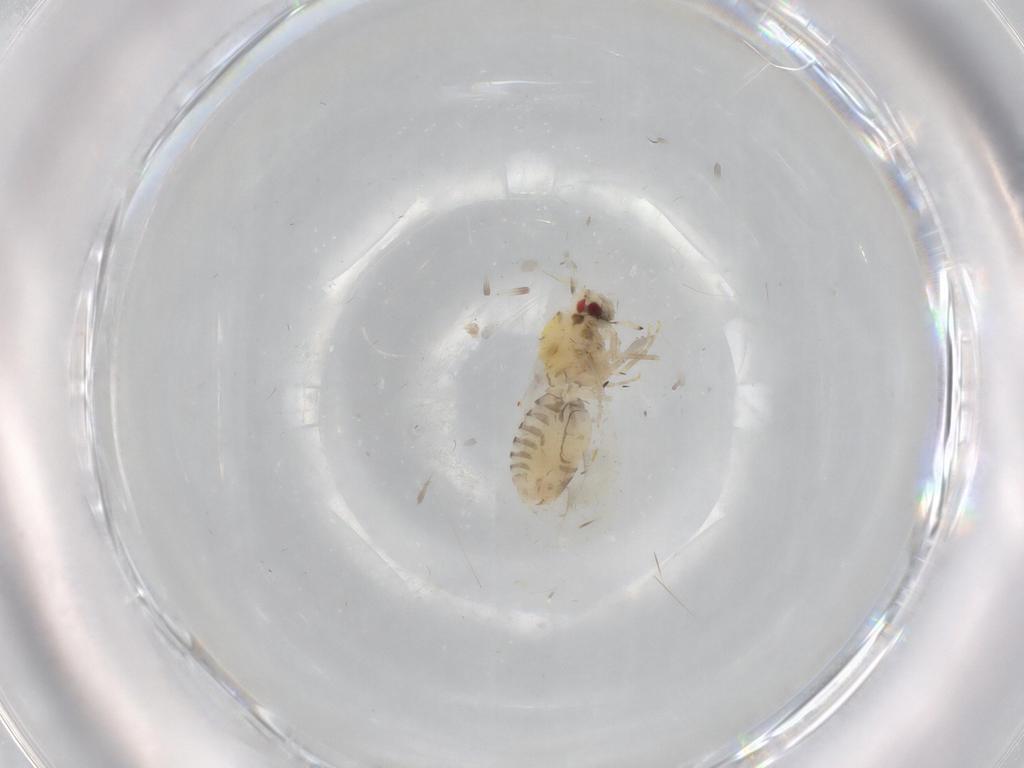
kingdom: Animalia
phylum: Arthropoda
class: Insecta
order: Hemiptera
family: Aleyrodidae
